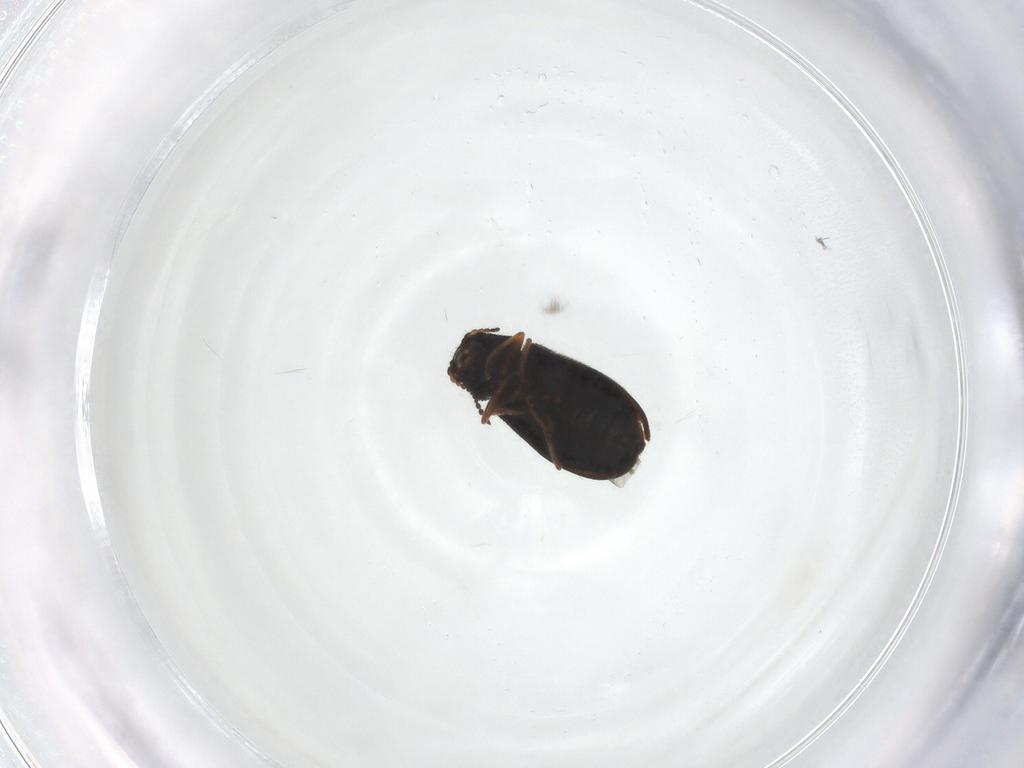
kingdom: Animalia
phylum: Arthropoda
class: Insecta
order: Coleoptera
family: Melyridae
